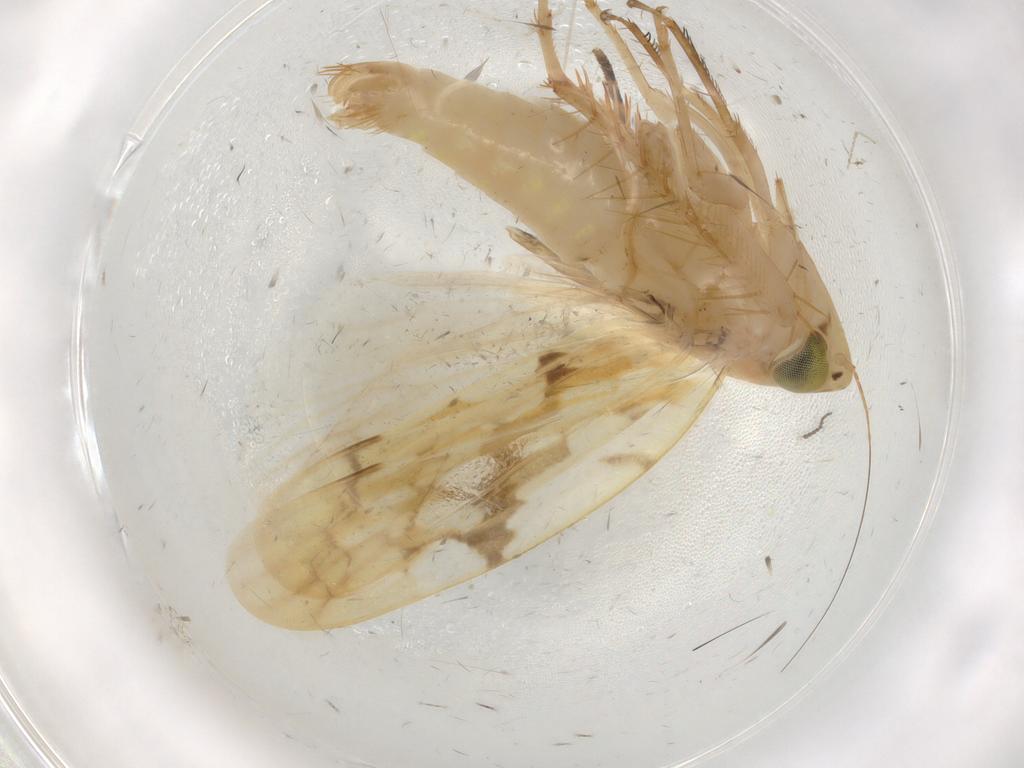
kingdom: Animalia
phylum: Arthropoda
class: Insecta
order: Hemiptera
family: Cicadellidae
